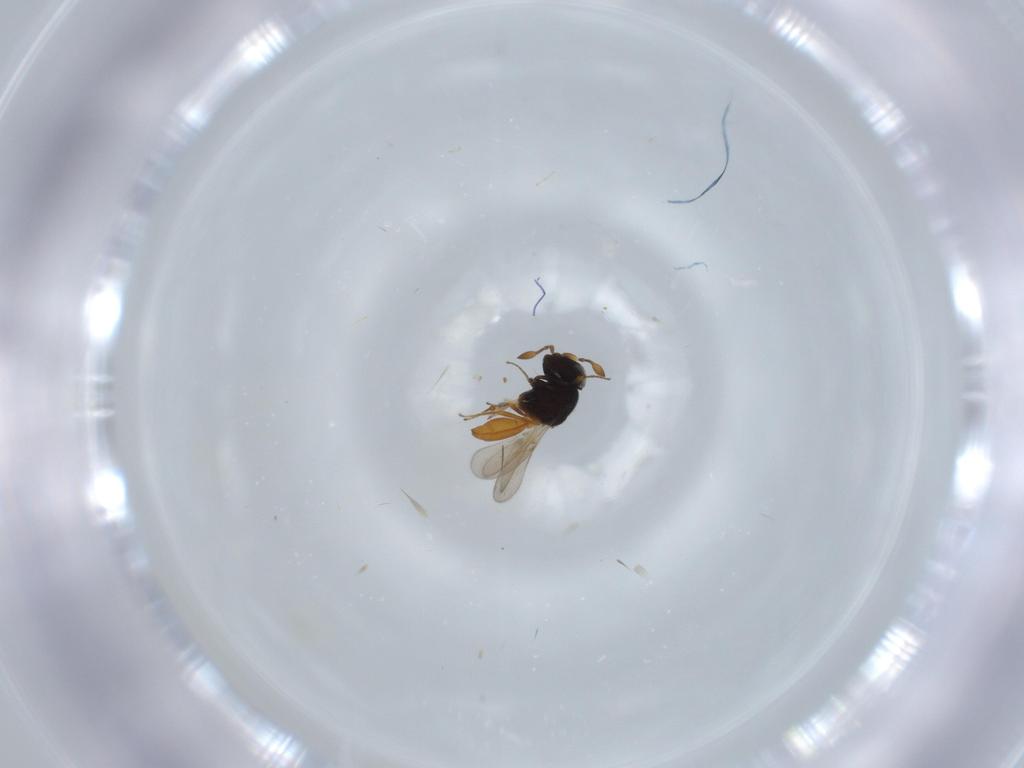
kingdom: Animalia
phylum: Arthropoda
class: Insecta
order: Hymenoptera
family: Scelionidae
